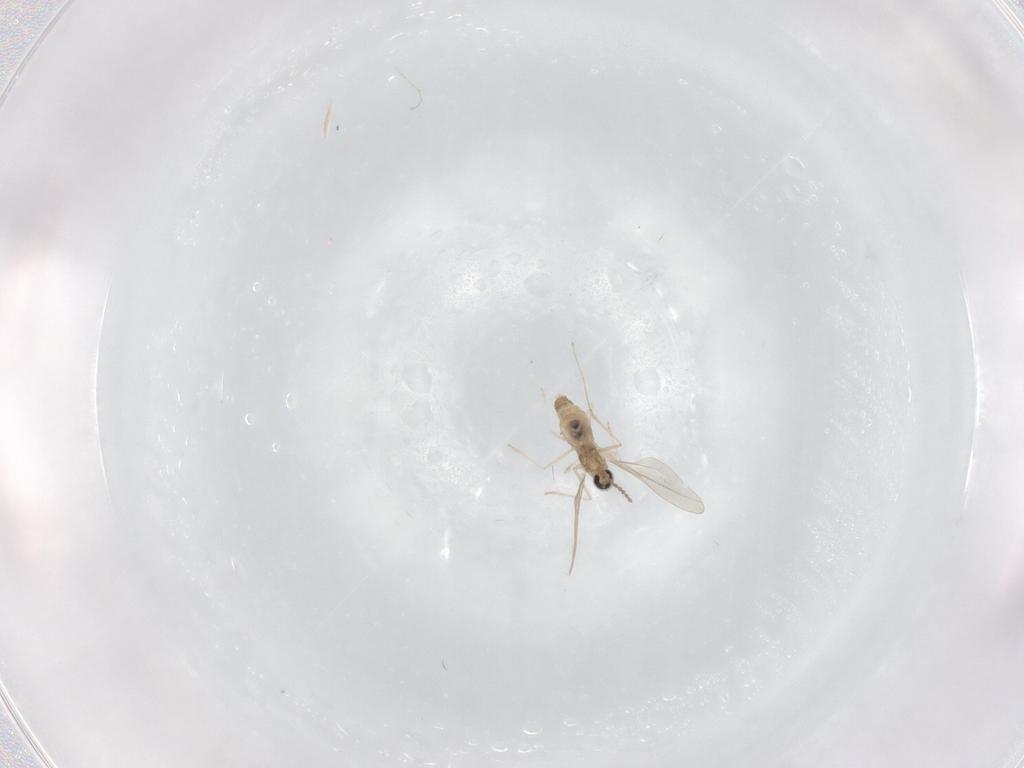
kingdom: Animalia
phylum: Arthropoda
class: Insecta
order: Diptera
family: Cecidomyiidae
